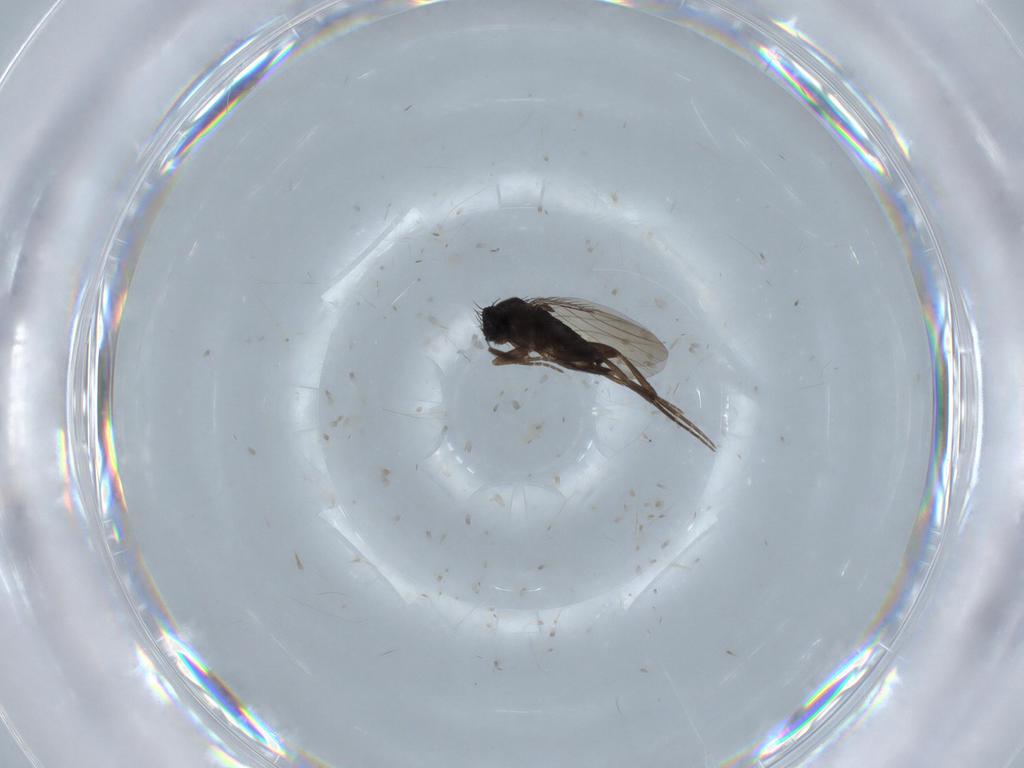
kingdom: Animalia
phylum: Arthropoda
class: Insecta
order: Diptera
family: Phoridae
